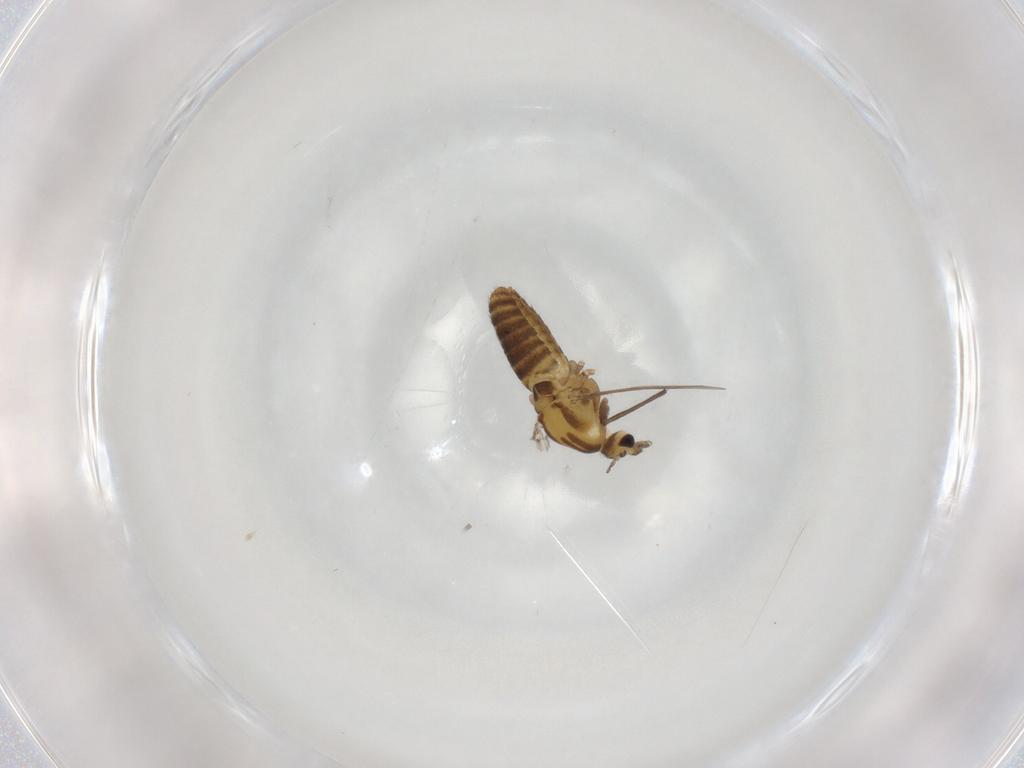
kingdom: Animalia
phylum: Arthropoda
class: Insecta
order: Diptera
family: Chironomidae
